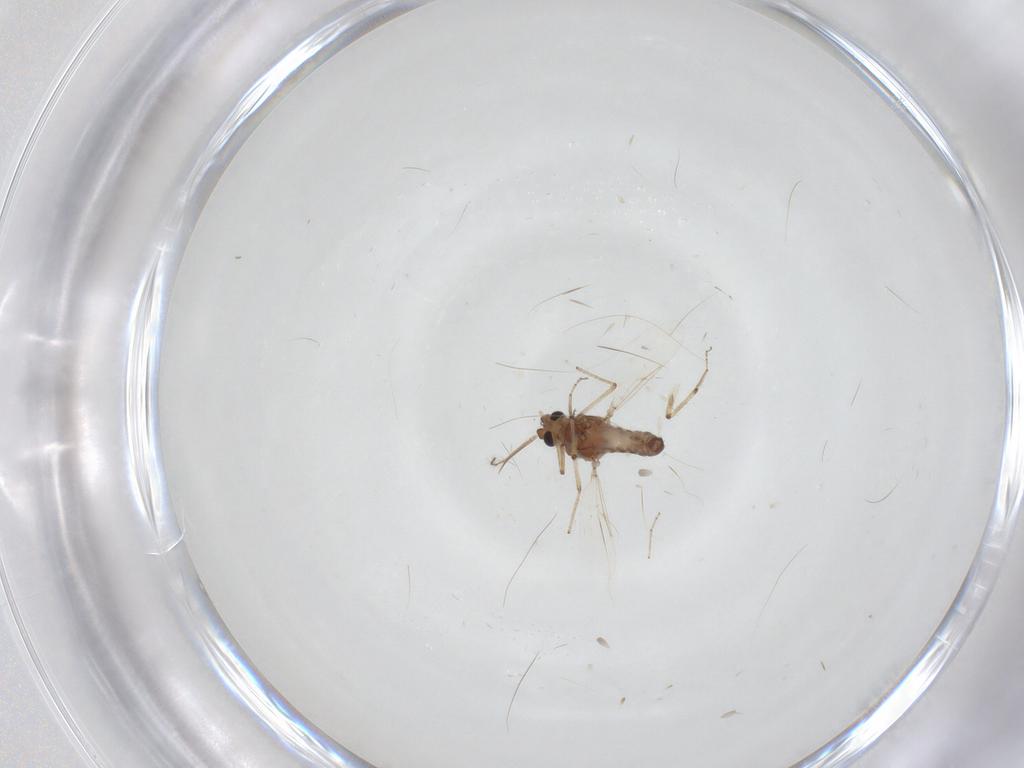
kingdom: Animalia
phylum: Arthropoda
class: Insecta
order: Diptera
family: Ceratopogonidae
